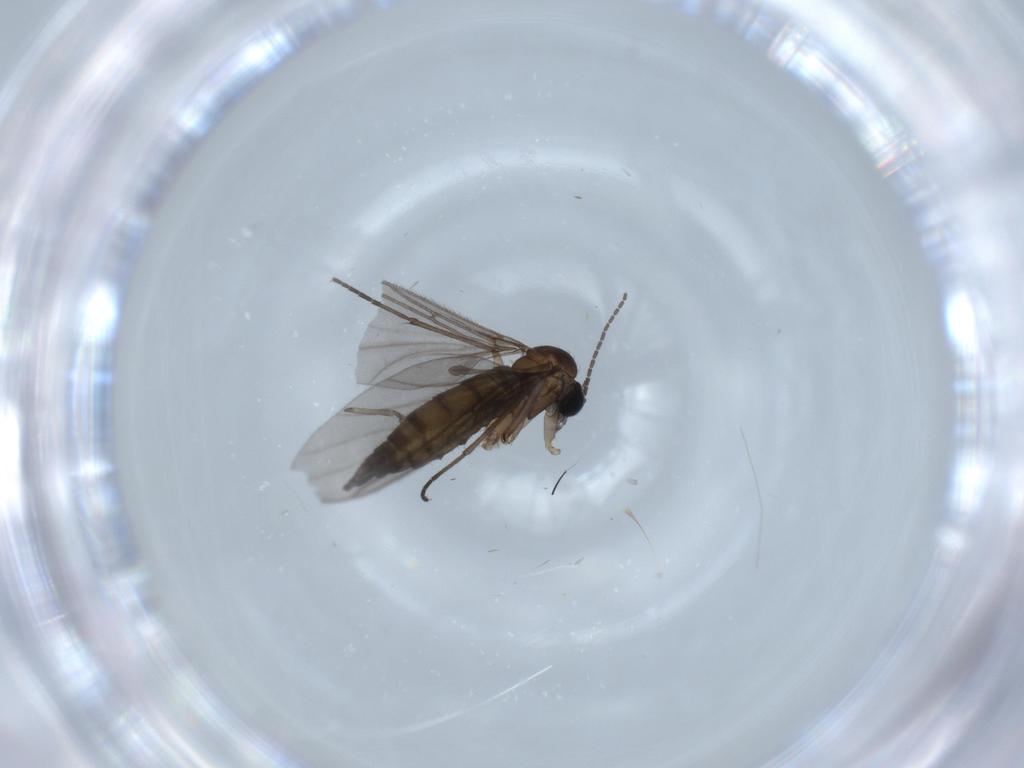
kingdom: Animalia
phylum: Arthropoda
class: Insecta
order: Diptera
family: Sciaridae
